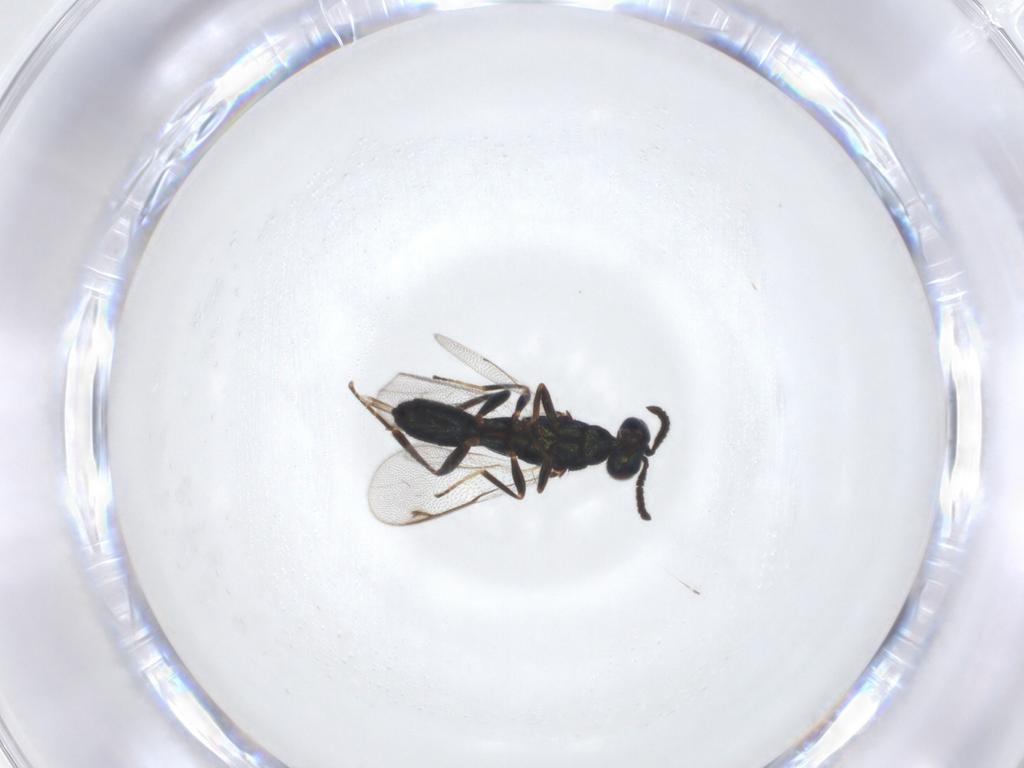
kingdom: Animalia
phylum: Arthropoda
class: Insecta
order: Hymenoptera
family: Cleonyminae
